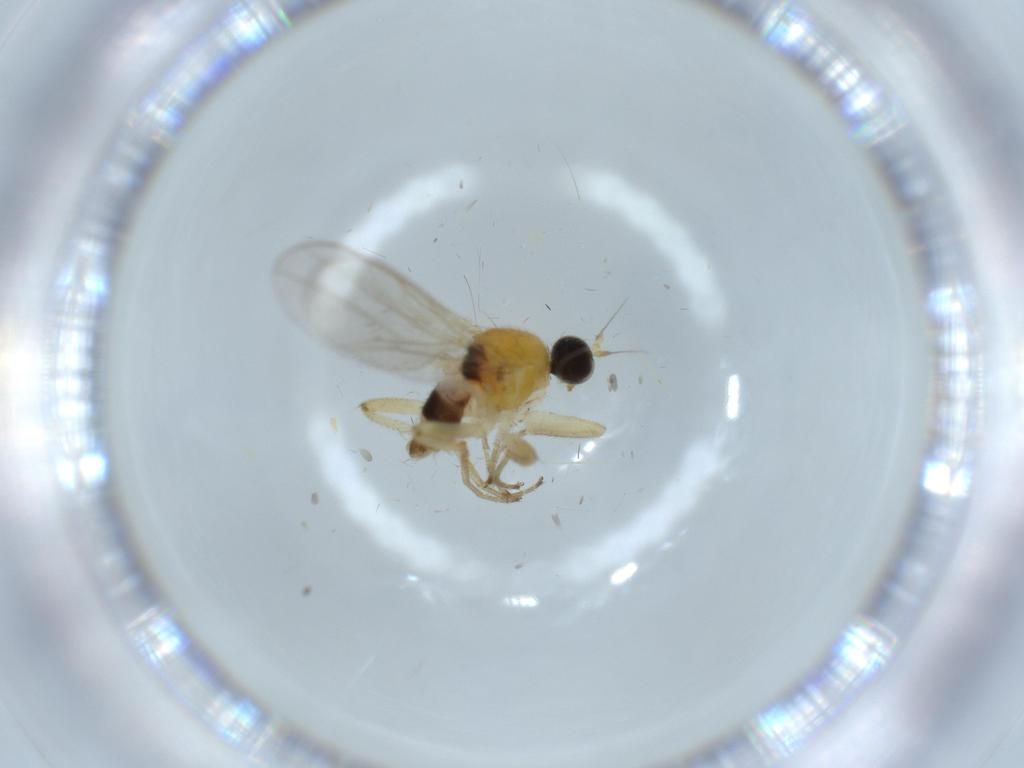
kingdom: Animalia
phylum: Arthropoda
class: Insecta
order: Diptera
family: Hybotidae
